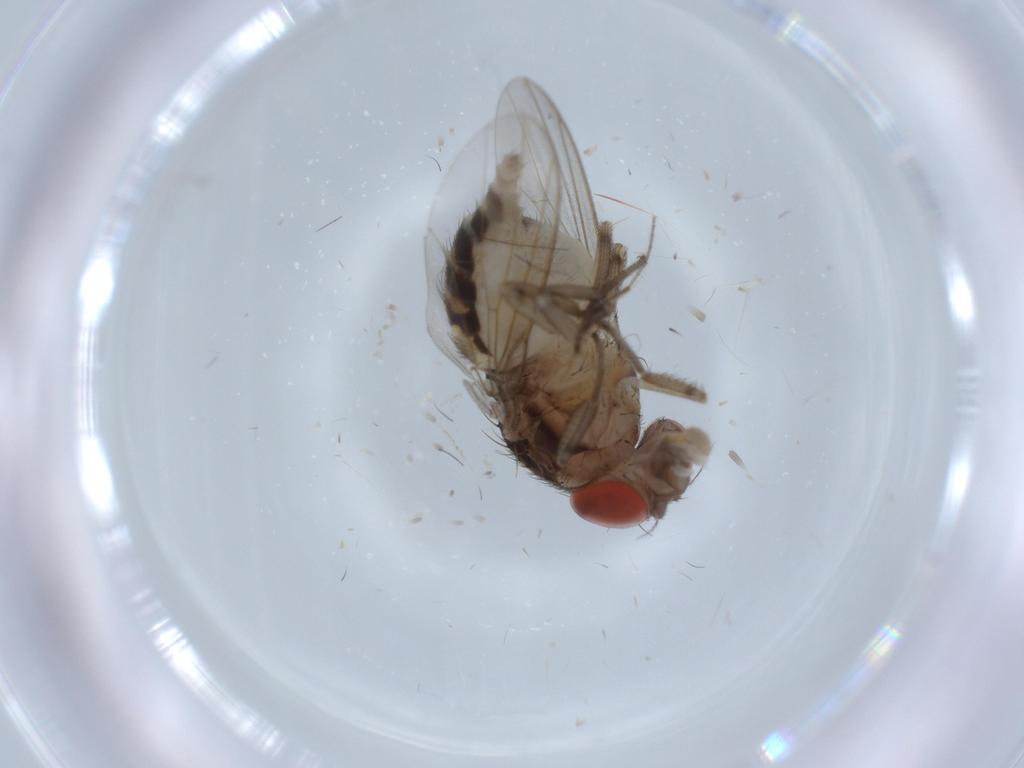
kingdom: Animalia
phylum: Arthropoda
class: Insecta
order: Diptera
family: Drosophilidae
